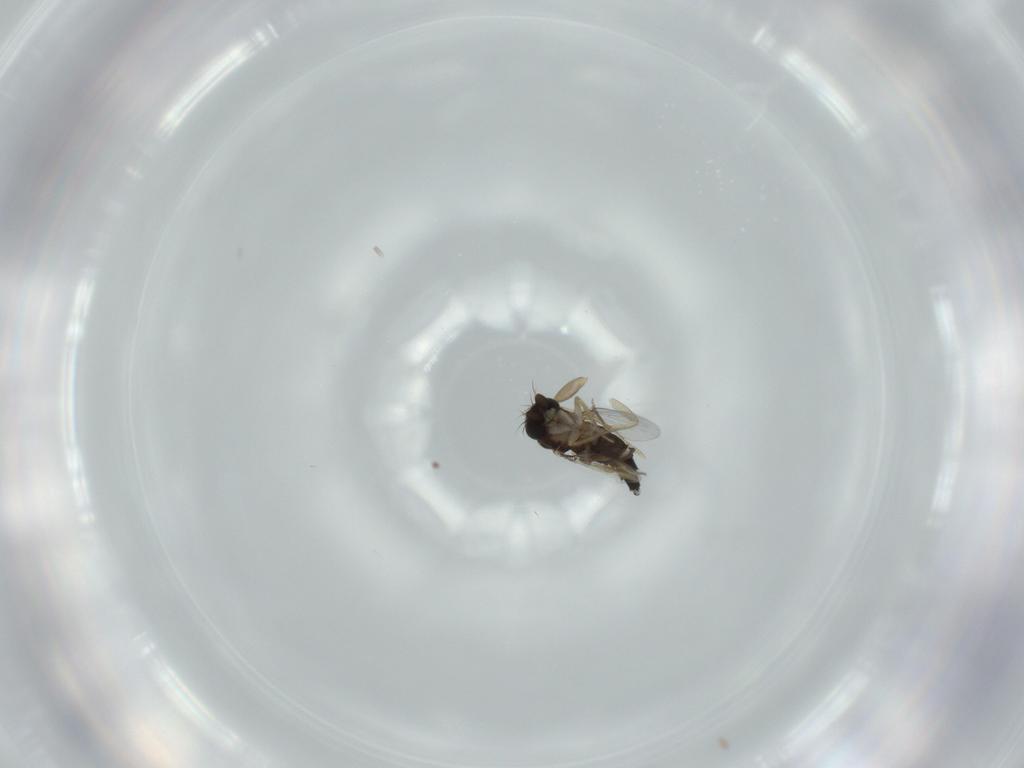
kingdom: Animalia
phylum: Arthropoda
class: Insecta
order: Diptera
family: Phoridae
